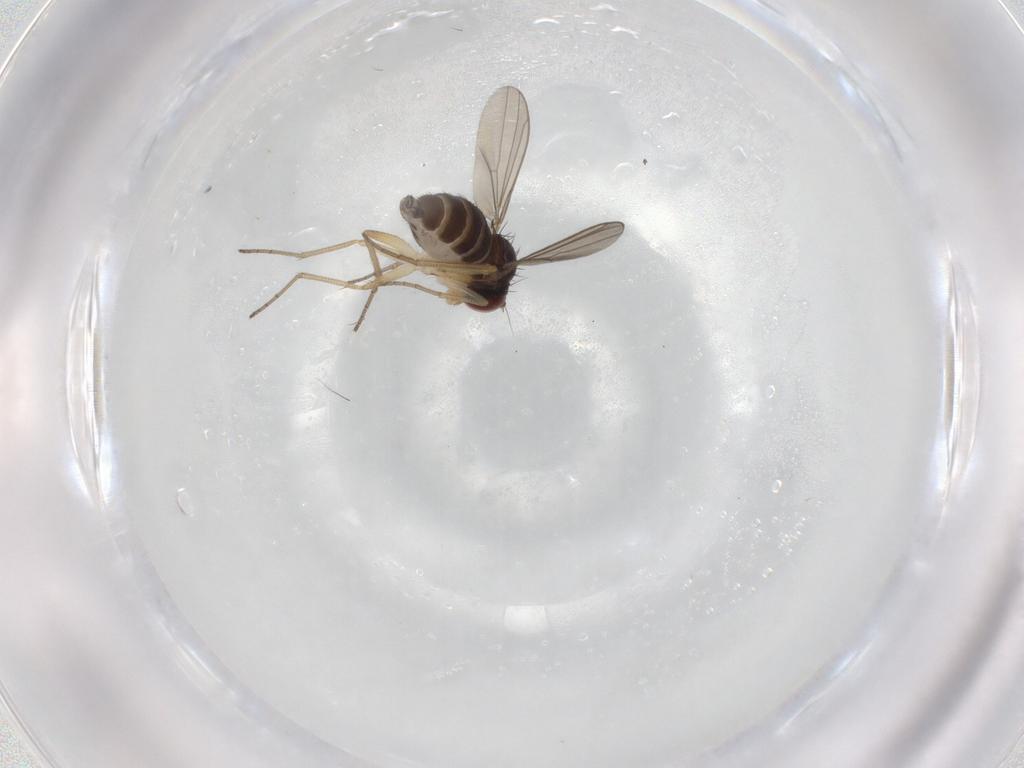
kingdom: Animalia
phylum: Arthropoda
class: Insecta
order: Diptera
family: Dolichopodidae
